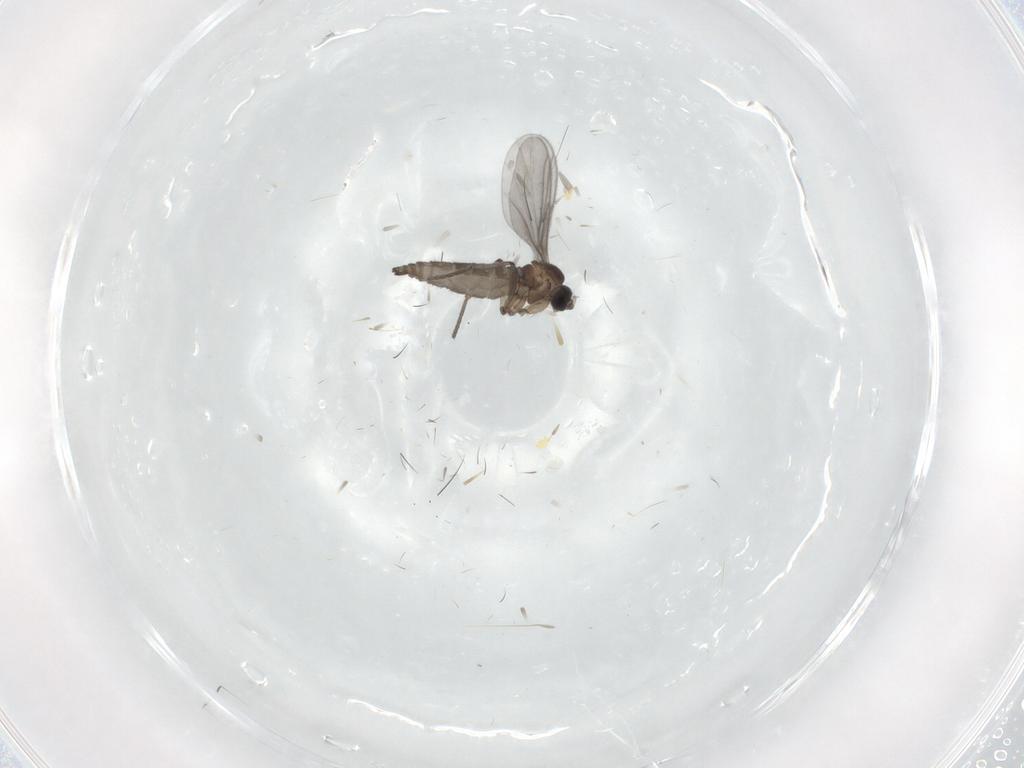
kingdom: Animalia
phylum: Arthropoda
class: Insecta
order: Diptera
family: Sciaridae
